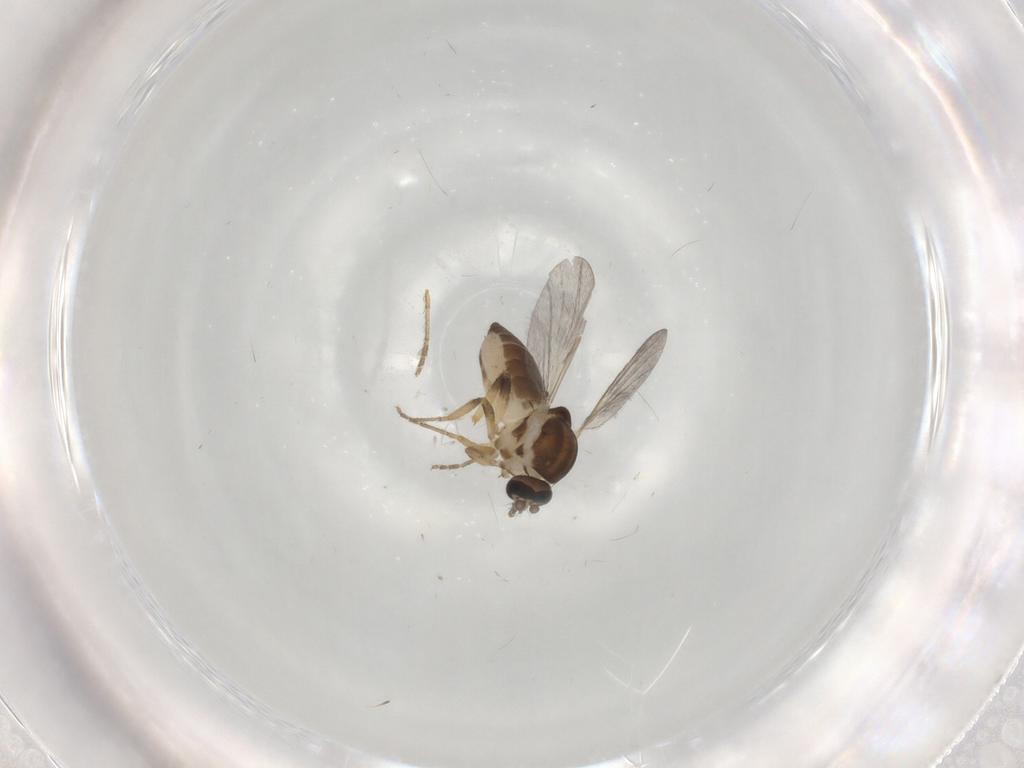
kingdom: Animalia
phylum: Arthropoda
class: Insecta
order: Diptera
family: Ceratopogonidae
